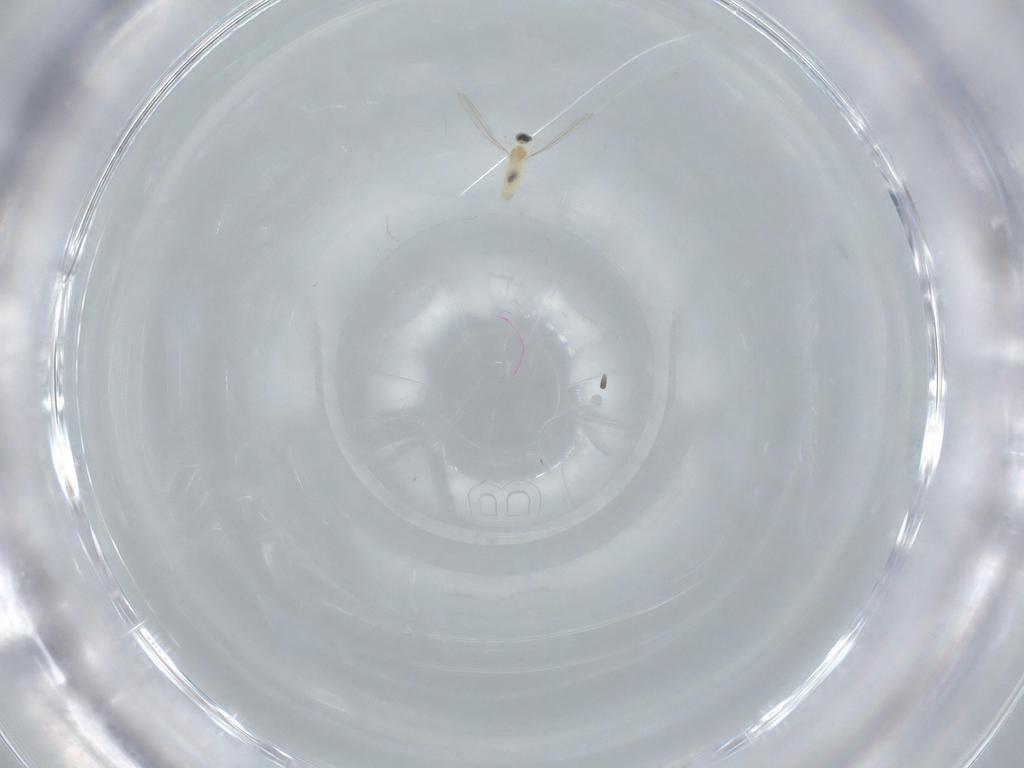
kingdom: Animalia
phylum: Arthropoda
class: Insecta
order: Diptera
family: Cecidomyiidae
